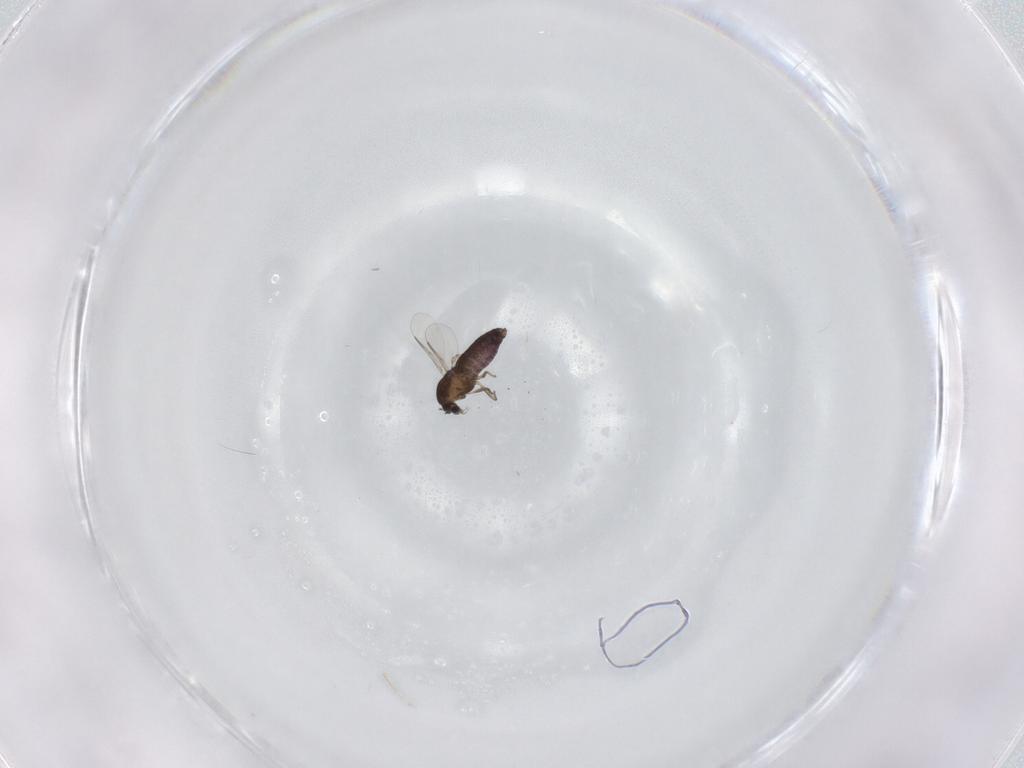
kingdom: Animalia
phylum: Arthropoda
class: Insecta
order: Diptera
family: Chironomidae
